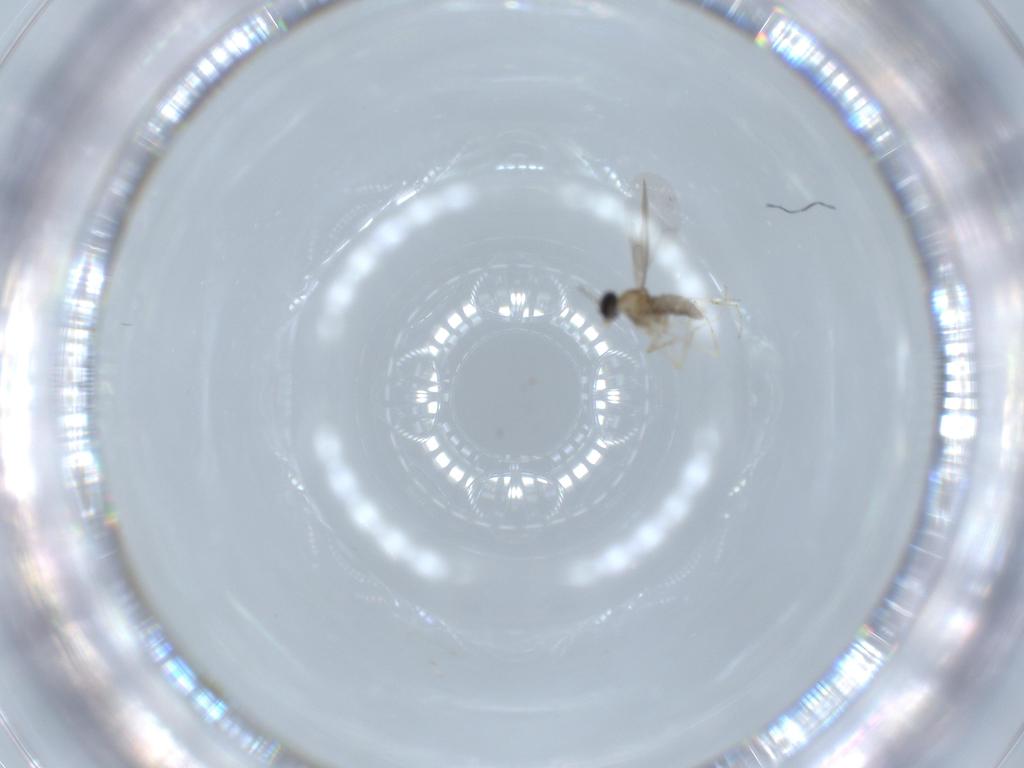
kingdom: Animalia
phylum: Arthropoda
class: Insecta
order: Diptera
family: Cecidomyiidae
